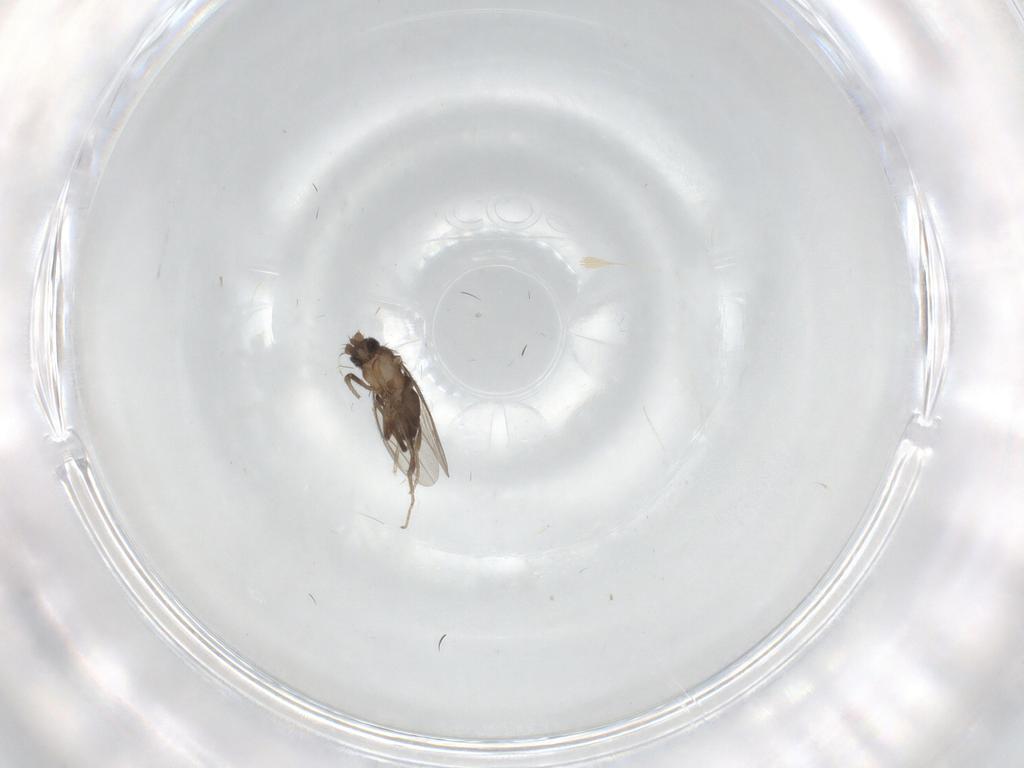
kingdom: Animalia
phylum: Arthropoda
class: Insecta
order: Diptera
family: Phoridae
